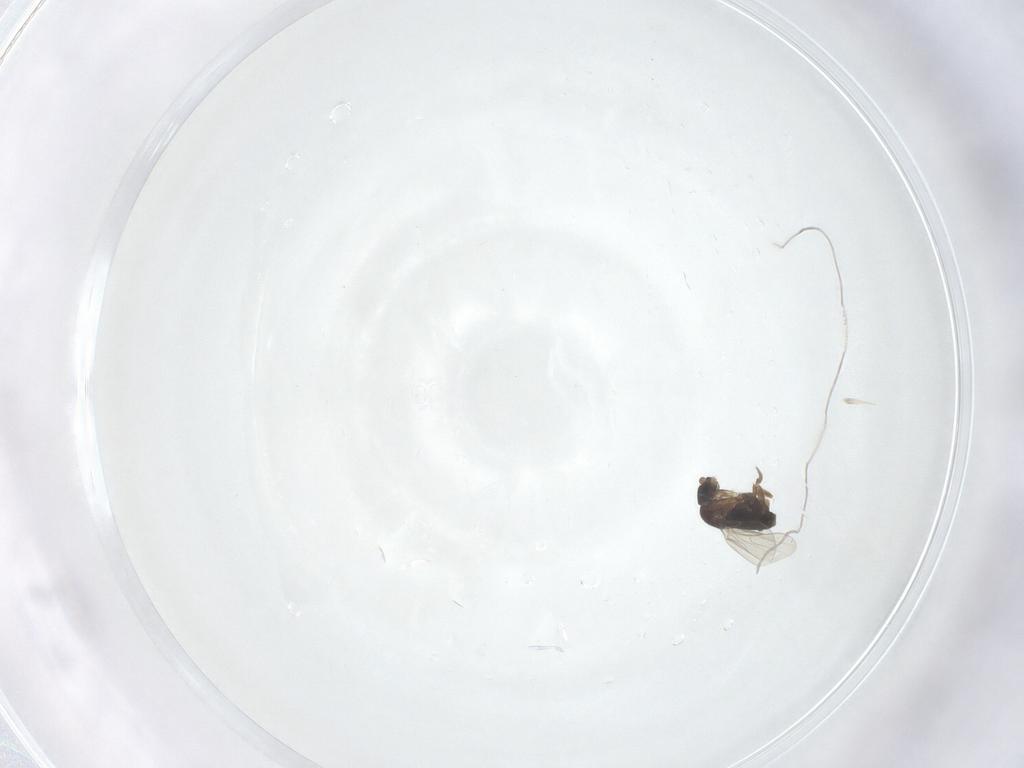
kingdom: Animalia
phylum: Arthropoda
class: Insecta
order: Diptera
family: Phoridae
